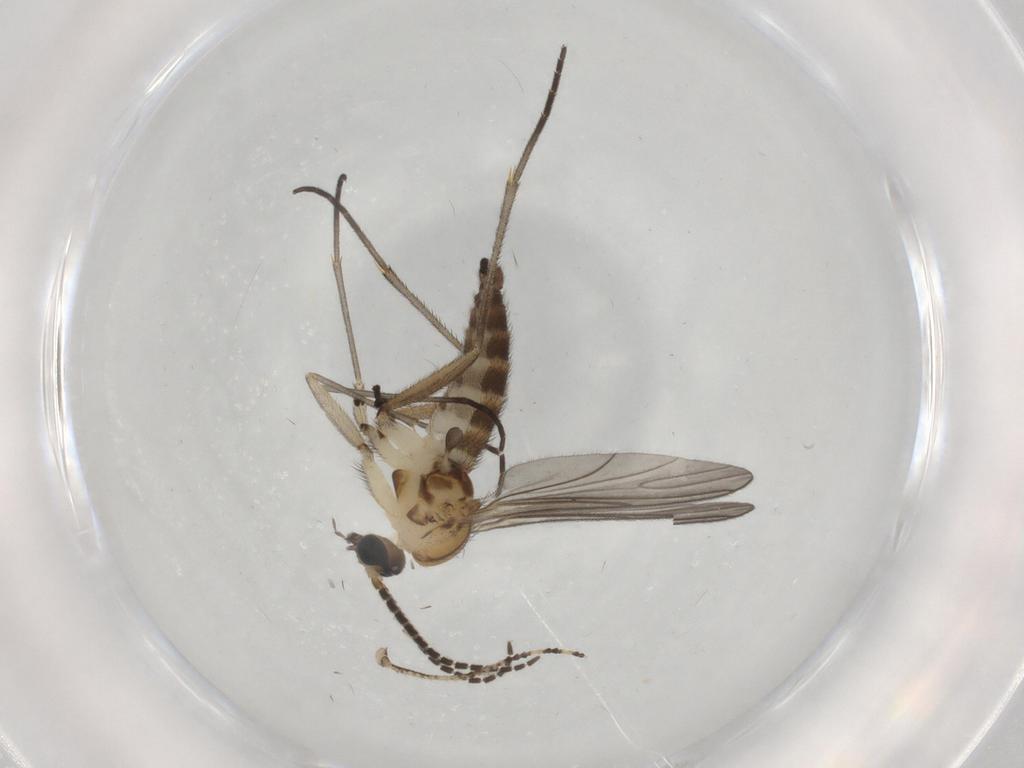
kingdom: Animalia
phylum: Arthropoda
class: Insecta
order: Diptera
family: Sciaridae
